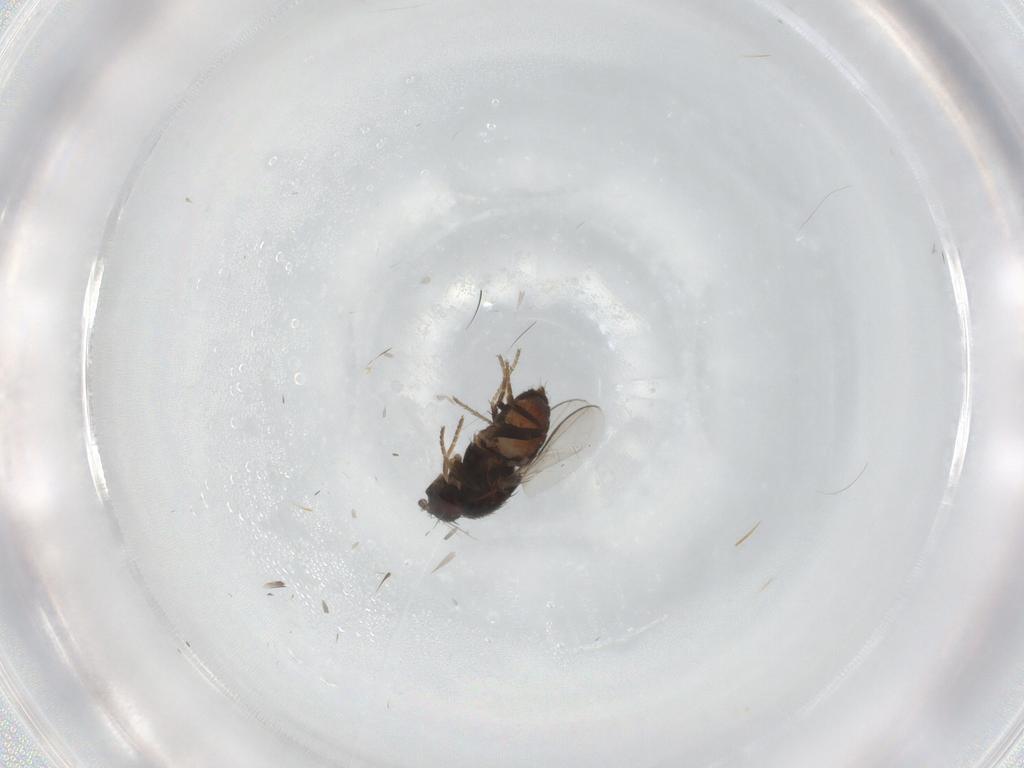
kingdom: Animalia
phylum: Arthropoda
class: Insecta
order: Diptera
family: Sphaeroceridae
